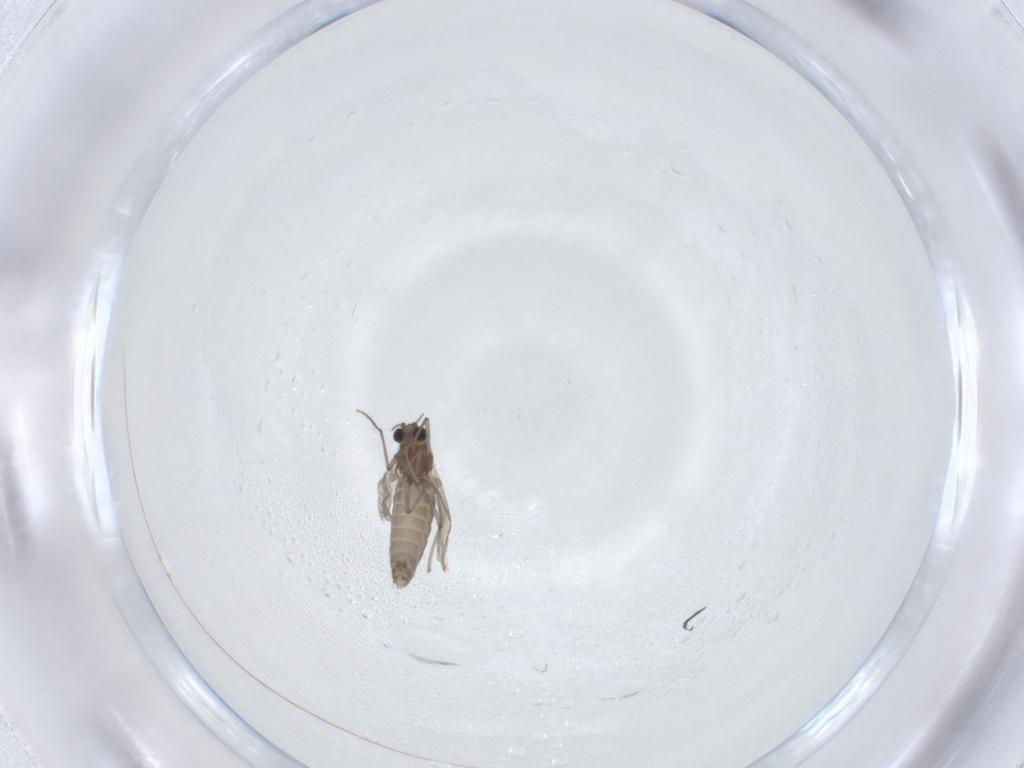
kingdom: Animalia
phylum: Arthropoda
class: Insecta
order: Diptera
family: Chironomidae
